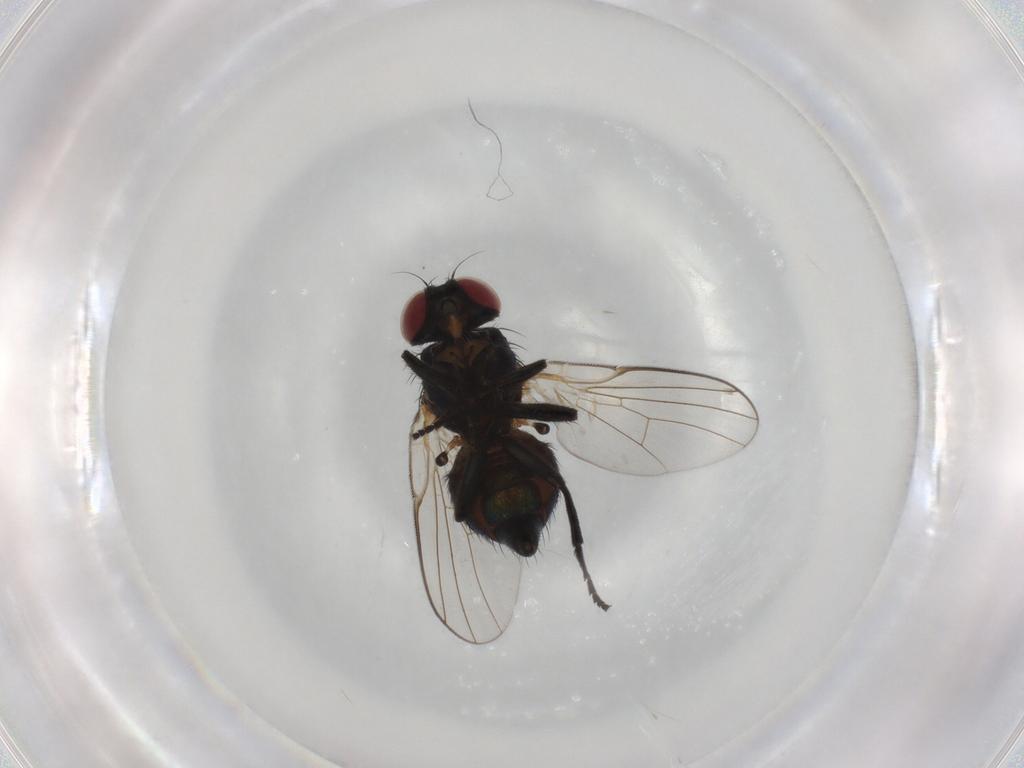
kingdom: Animalia
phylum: Arthropoda
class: Insecta
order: Diptera
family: Agromyzidae
